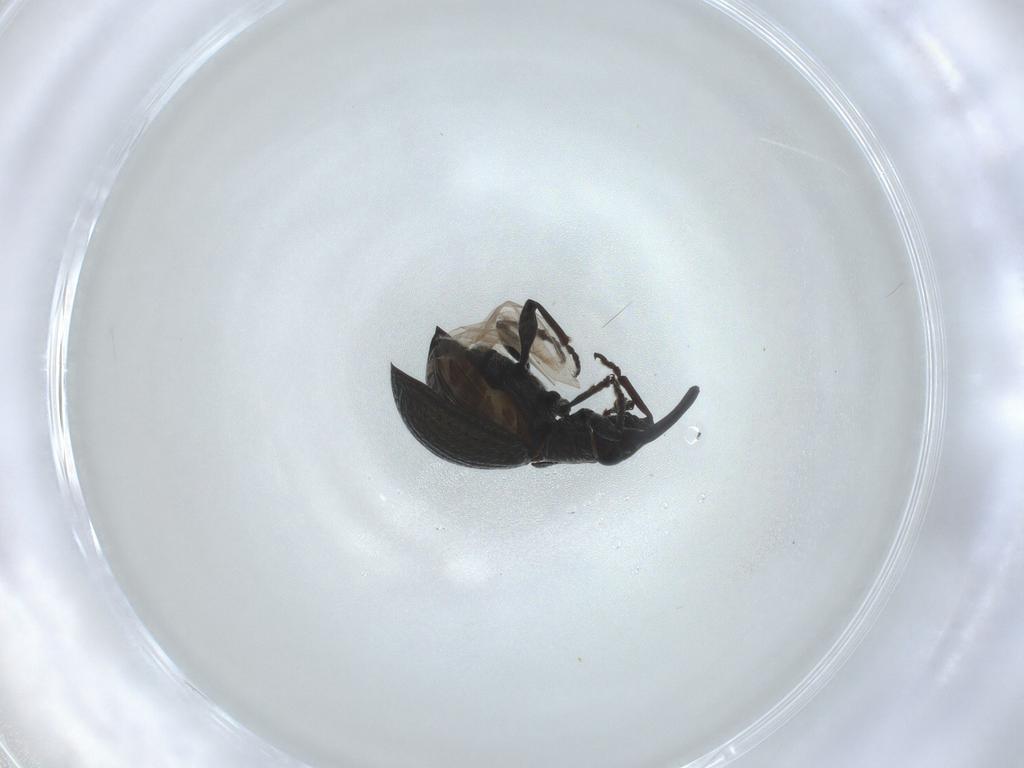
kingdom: Animalia
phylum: Arthropoda
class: Insecta
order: Coleoptera
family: Brentidae
